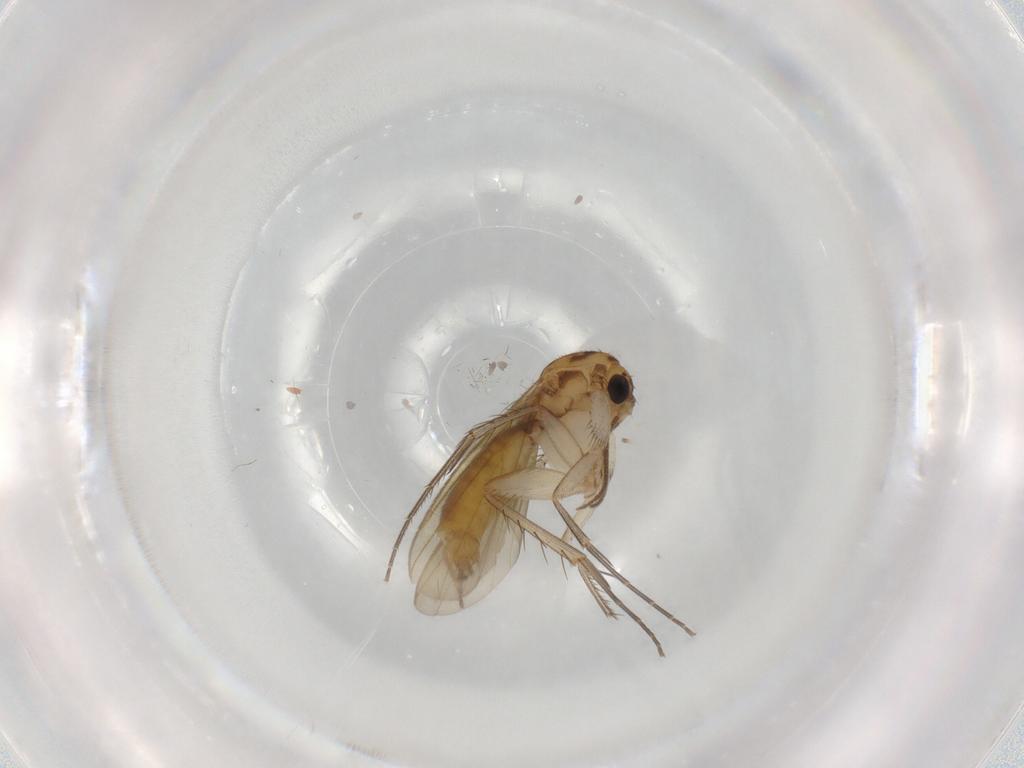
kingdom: Animalia
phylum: Arthropoda
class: Insecta
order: Diptera
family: Mycetophilidae
